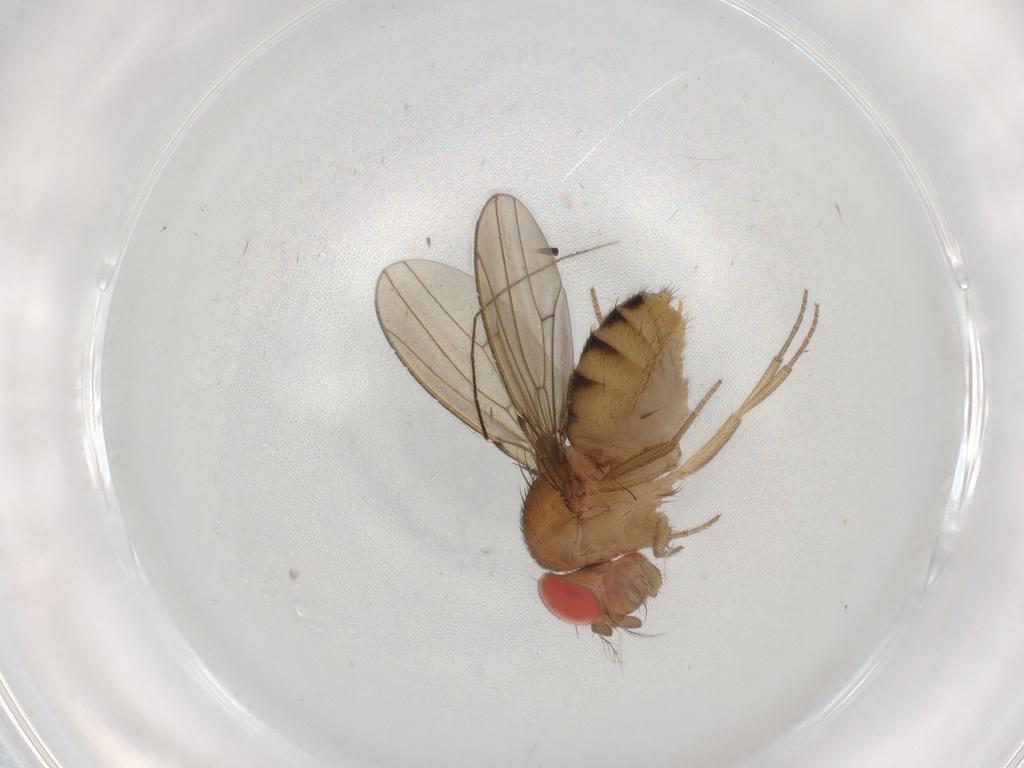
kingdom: Animalia
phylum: Arthropoda
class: Insecta
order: Diptera
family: Drosophilidae
